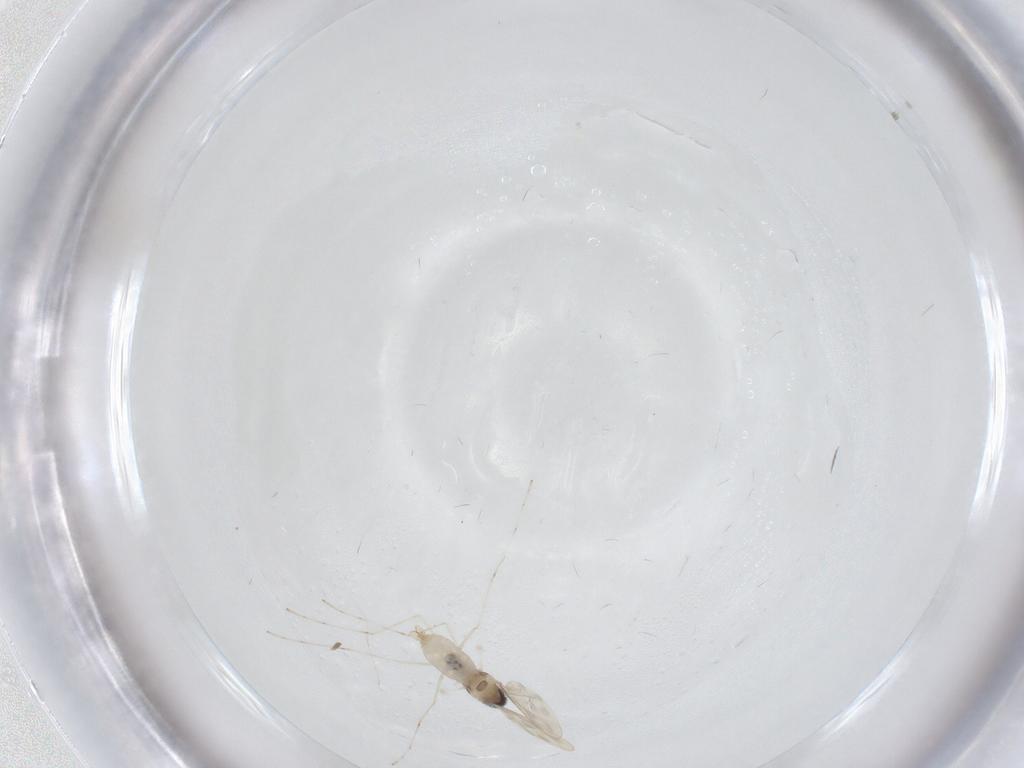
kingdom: Animalia
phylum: Arthropoda
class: Insecta
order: Diptera
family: Cecidomyiidae
